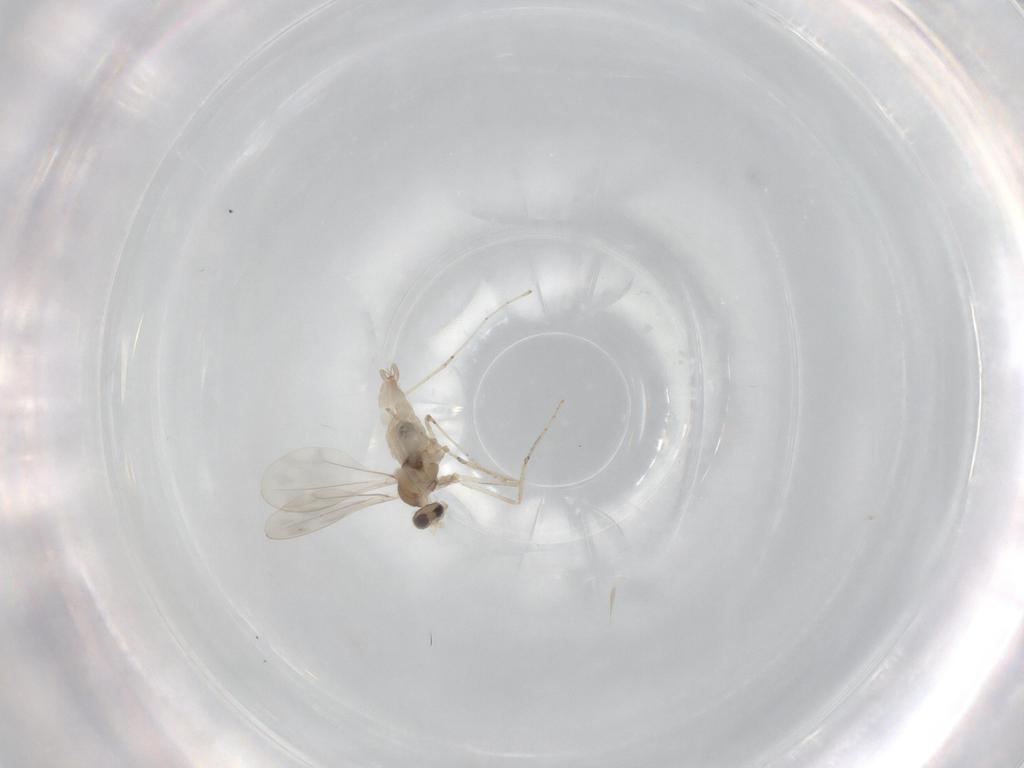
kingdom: Animalia
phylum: Arthropoda
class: Insecta
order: Diptera
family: Cecidomyiidae
